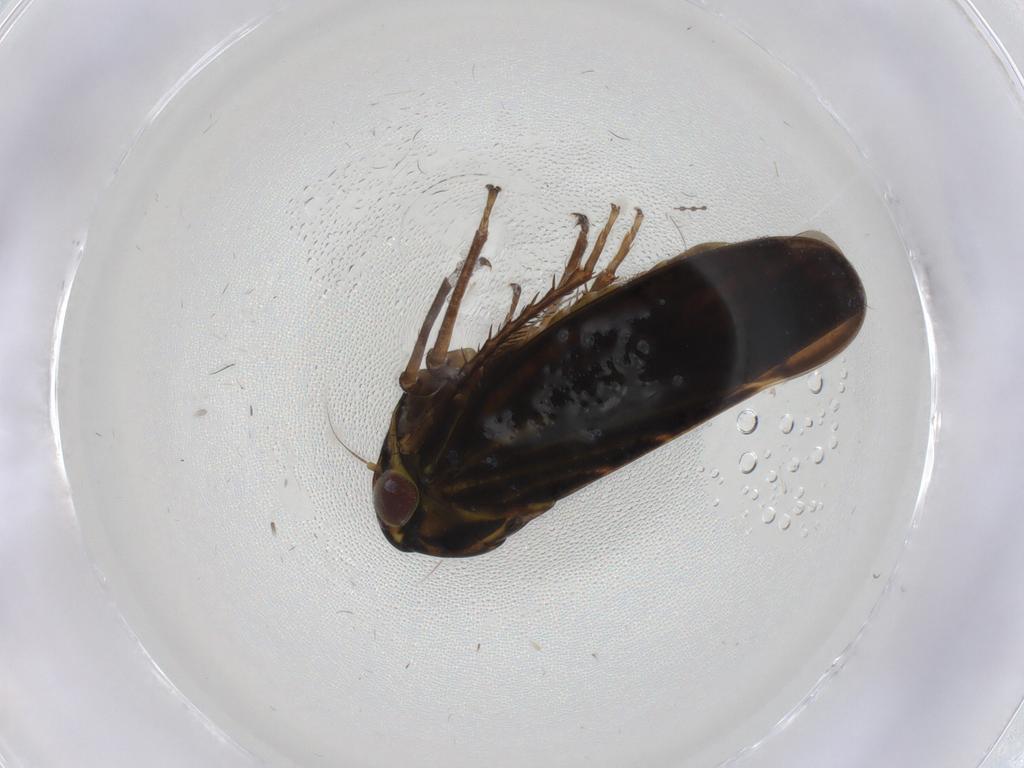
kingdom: Animalia
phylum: Arthropoda
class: Insecta
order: Hemiptera
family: Cicadellidae
